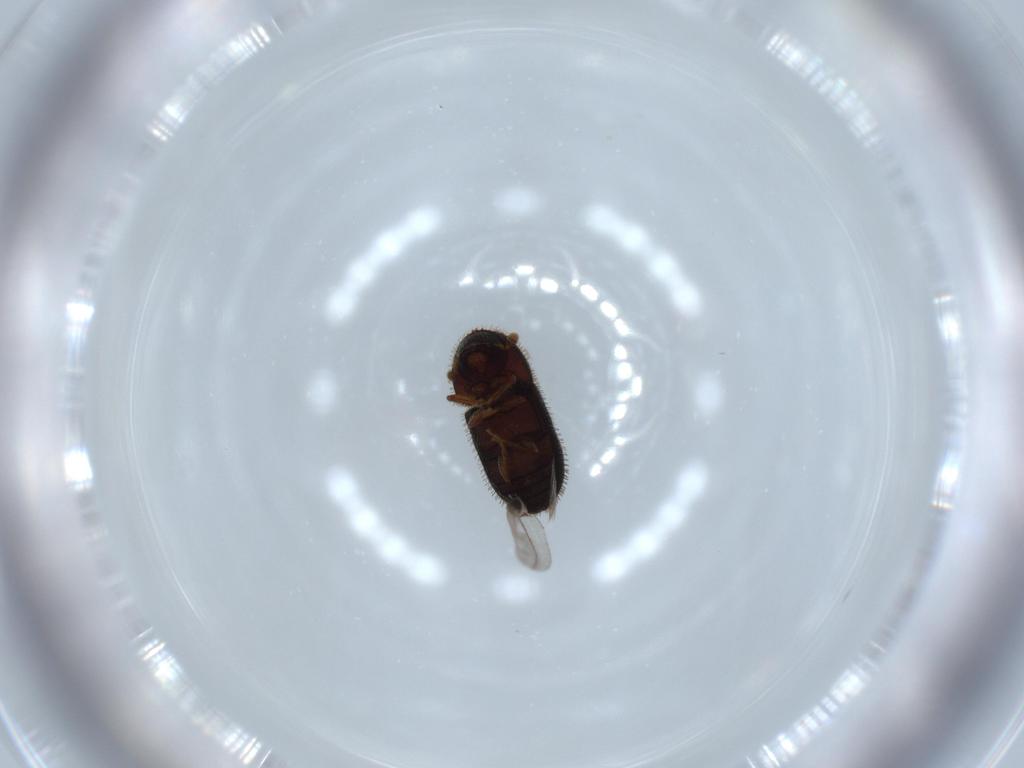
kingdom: Animalia
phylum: Arthropoda
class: Insecta
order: Coleoptera
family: Curculionidae
